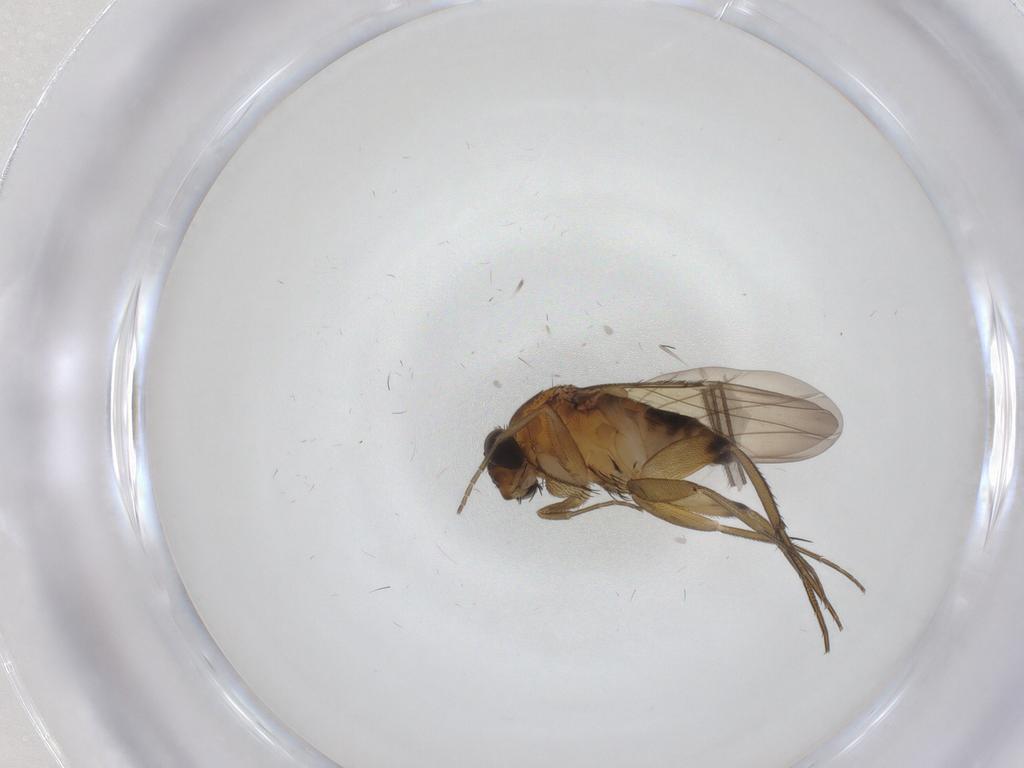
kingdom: Animalia
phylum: Arthropoda
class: Insecta
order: Diptera
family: Phoridae
